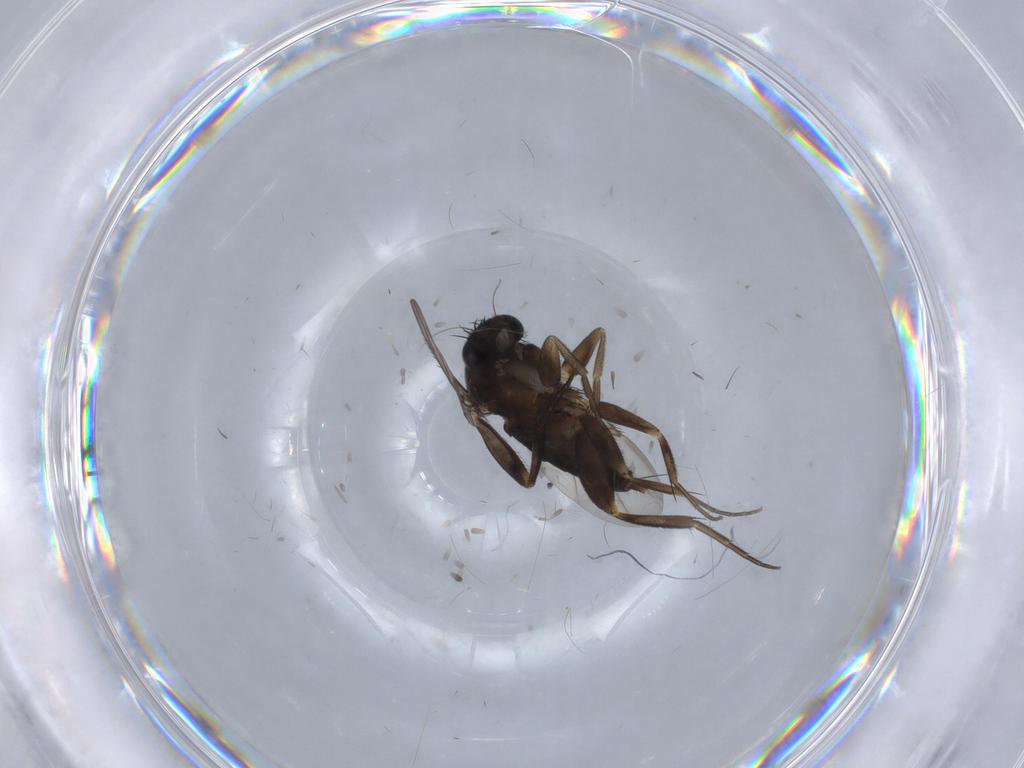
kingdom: Animalia
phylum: Arthropoda
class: Insecta
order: Diptera
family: Phoridae
